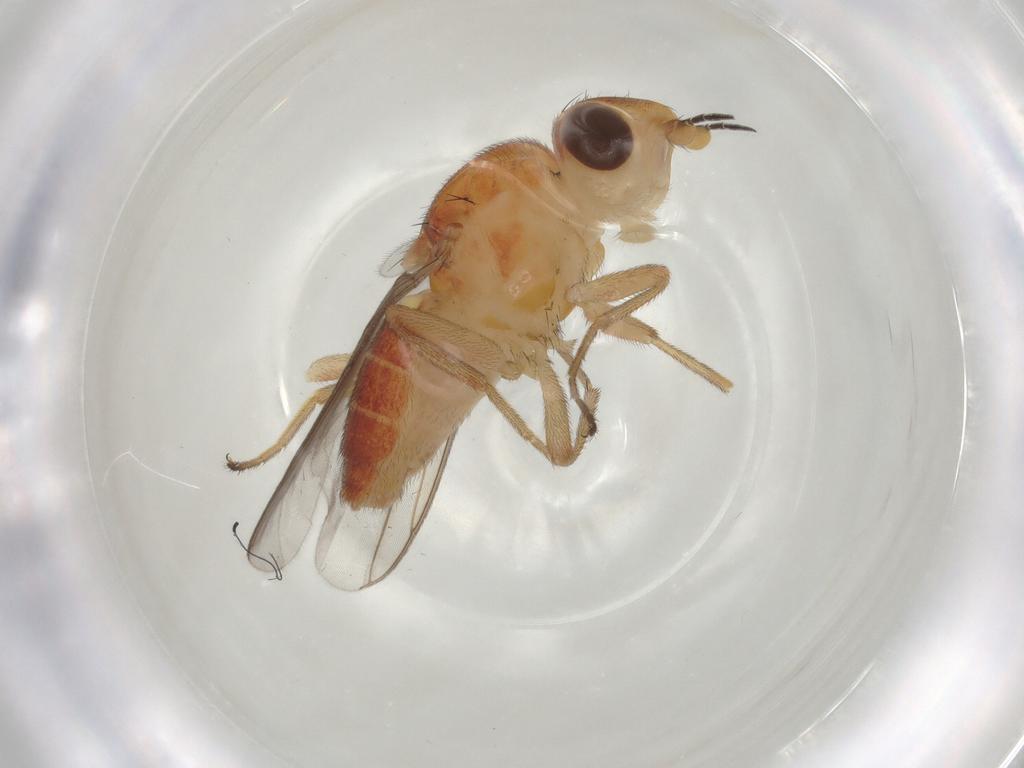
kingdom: Animalia
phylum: Arthropoda
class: Insecta
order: Diptera
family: Chloropidae
